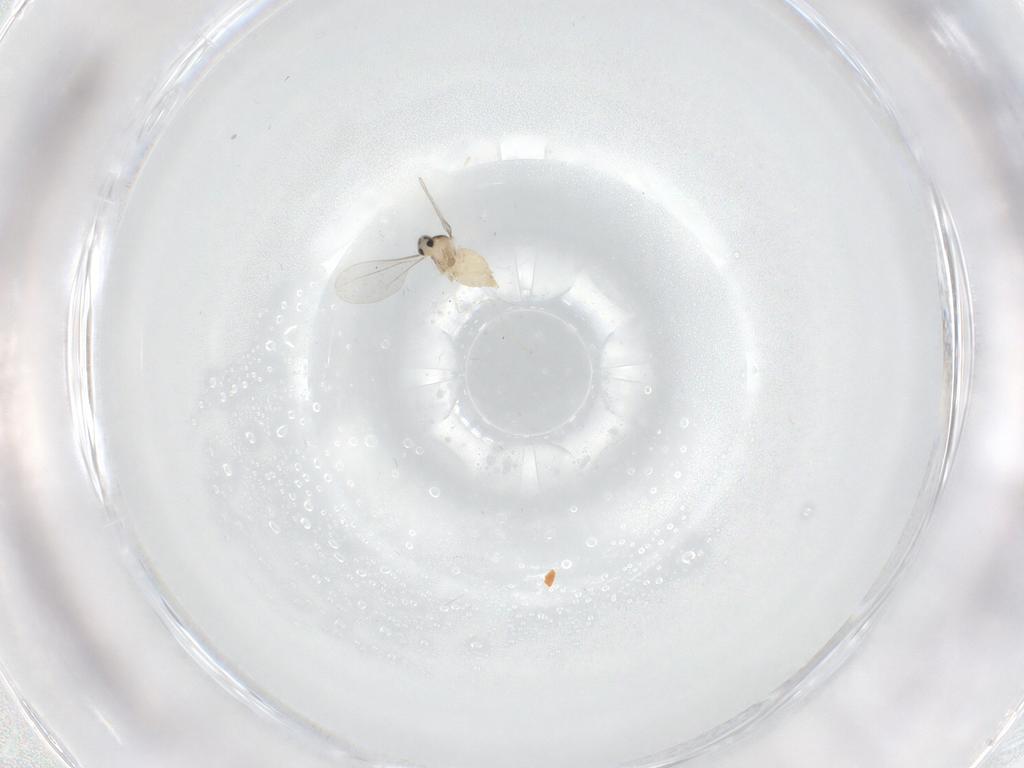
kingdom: Animalia
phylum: Arthropoda
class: Insecta
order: Diptera
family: Cecidomyiidae
